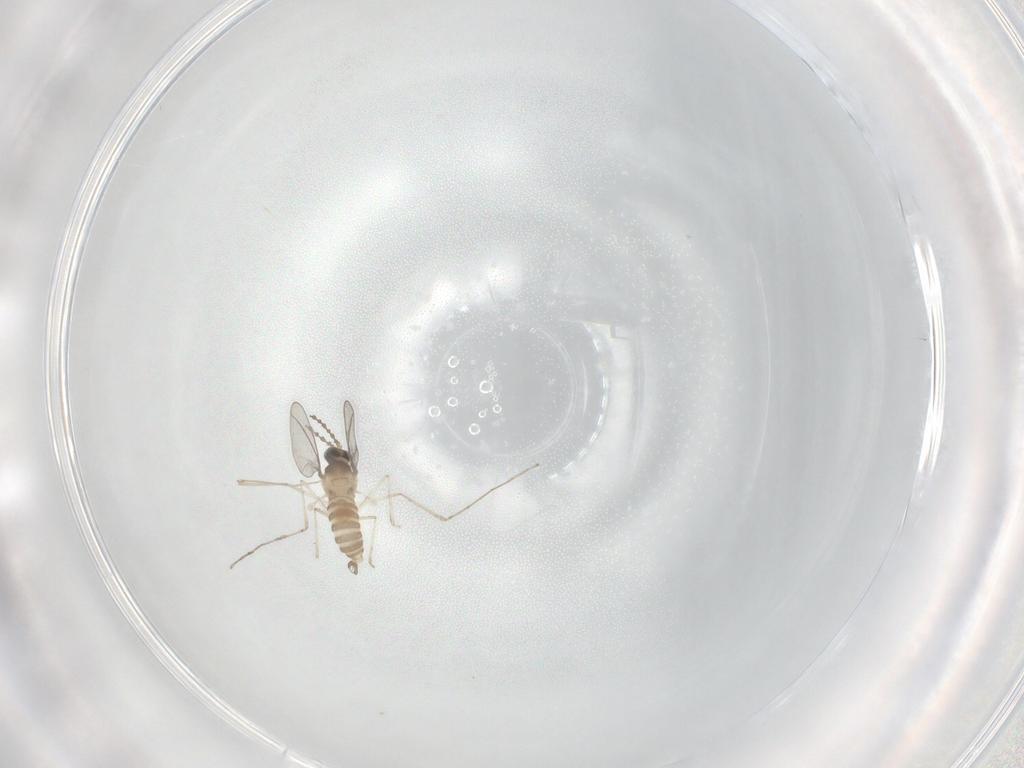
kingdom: Animalia
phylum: Arthropoda
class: Insecta
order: Diptera
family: Cecidomyiidae
